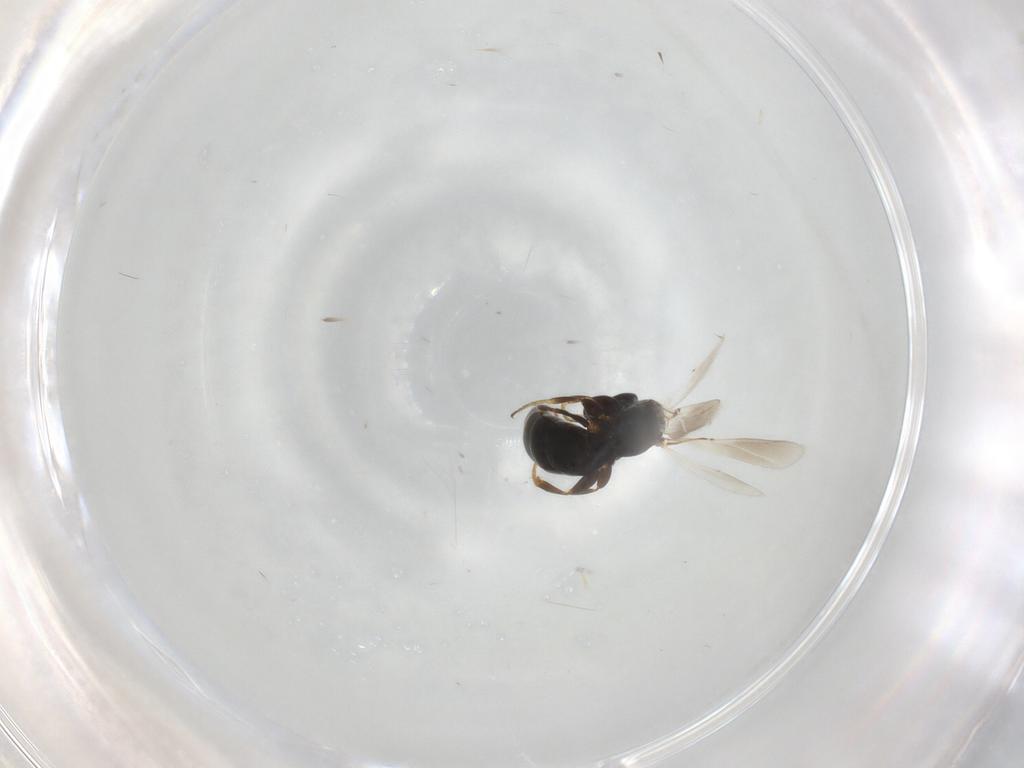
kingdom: Animalia
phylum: Arthropoda
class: Insecta
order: Hymenoptera
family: Bethylidae
